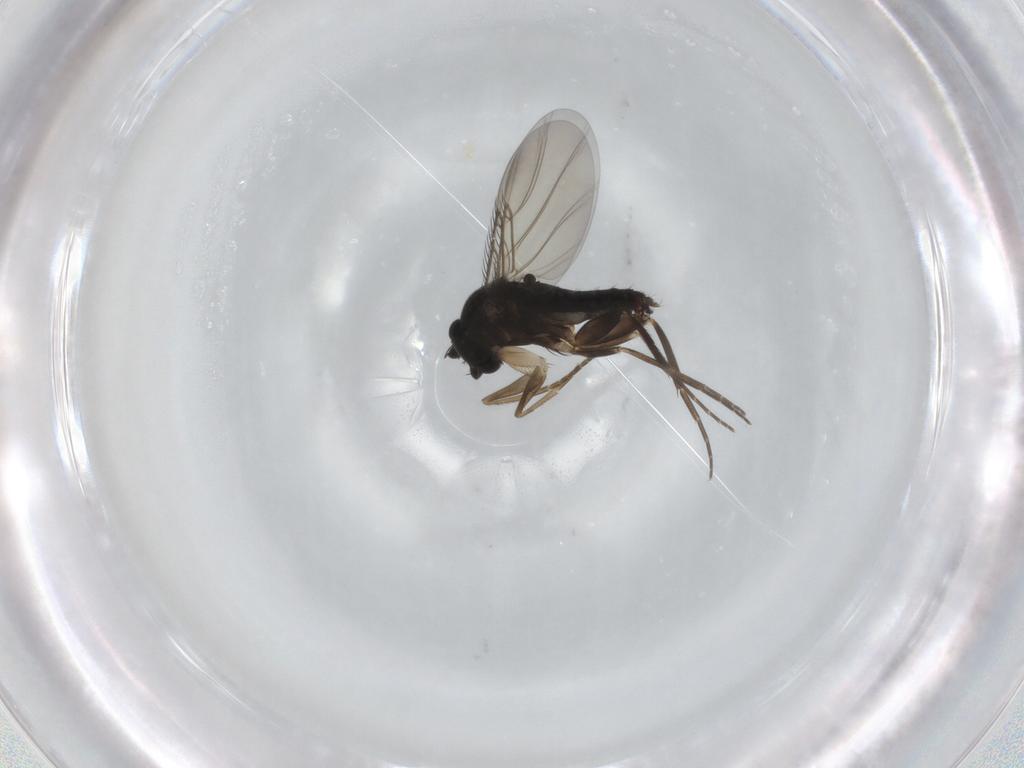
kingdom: Animalia
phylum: Arthropoda
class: Insecta
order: Diptera
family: Phoridae
